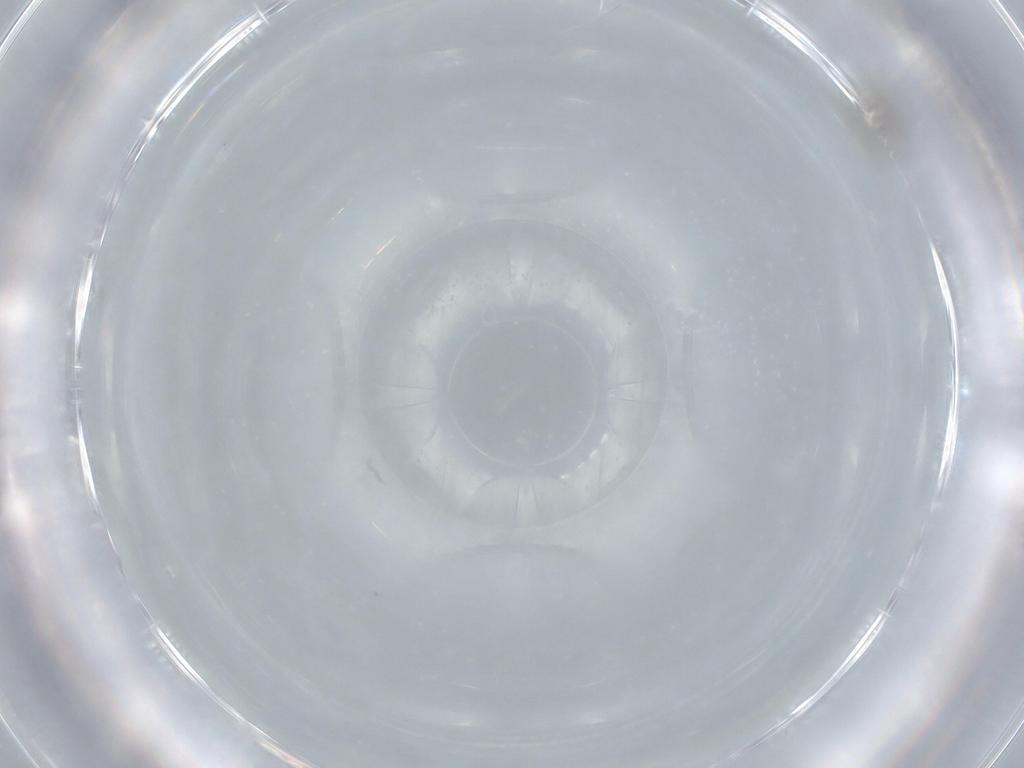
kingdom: Animalia
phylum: Arthropoda
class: Insecta
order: Hymenoptera
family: Mymaridae
